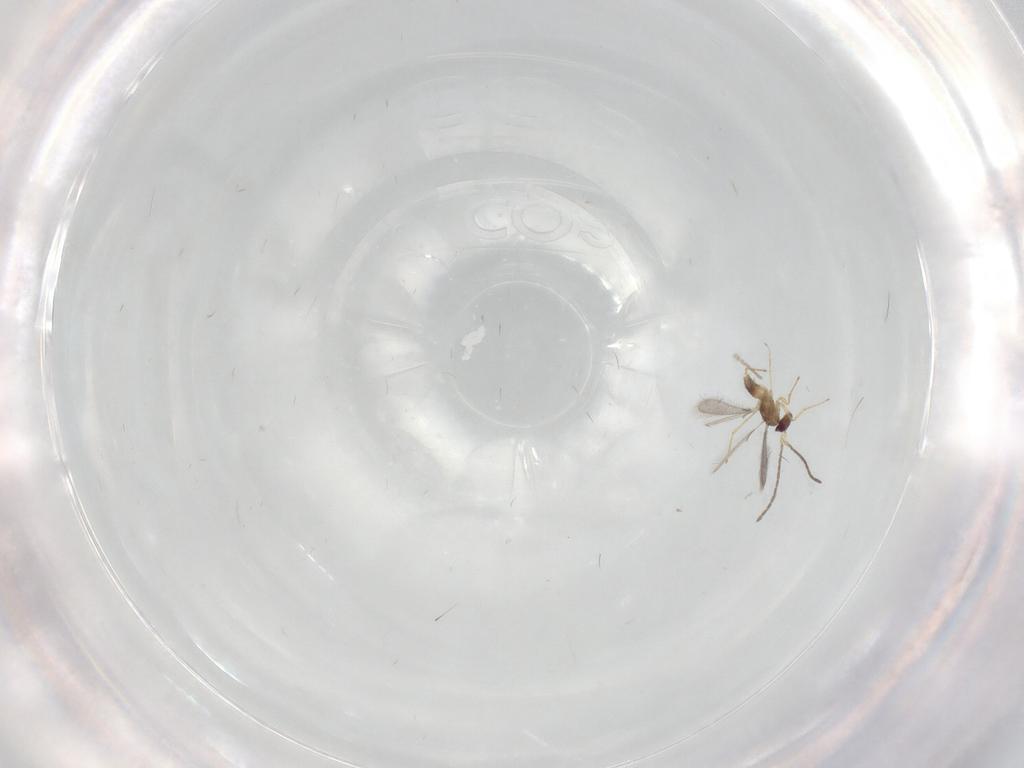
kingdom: Animalia
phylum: Arthropoda
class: Insecta
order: Hymenoptera
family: Mymaridae
